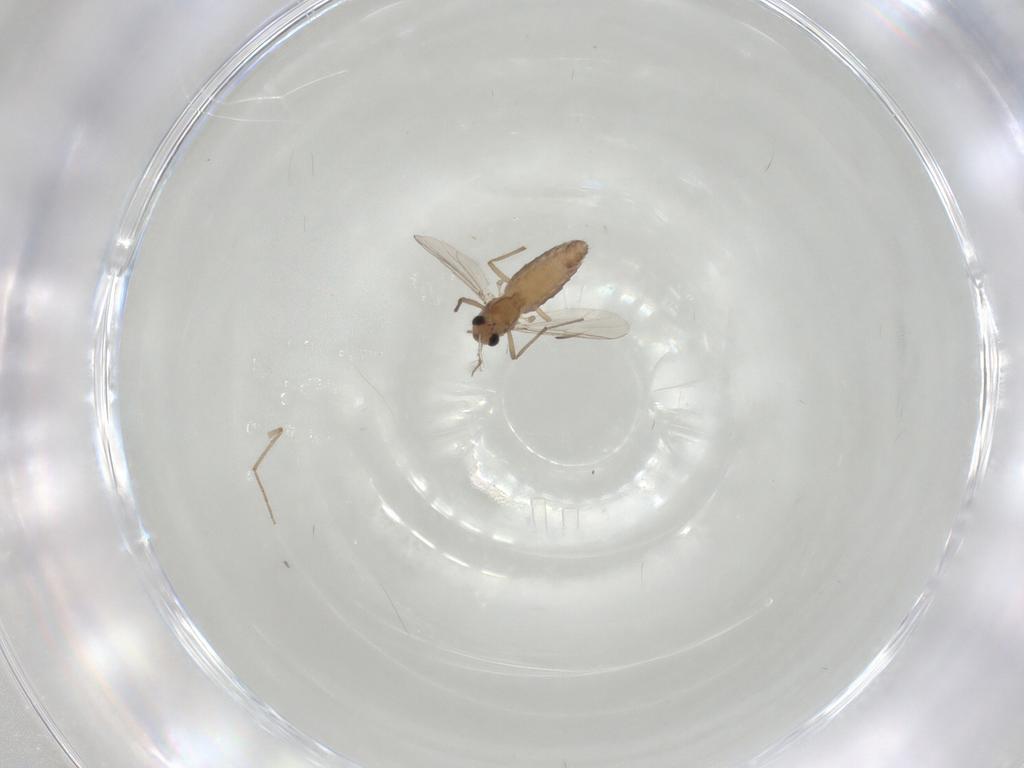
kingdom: Animalia
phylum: Arthropoda
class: Insecta
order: Diptera
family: Chironomidae
